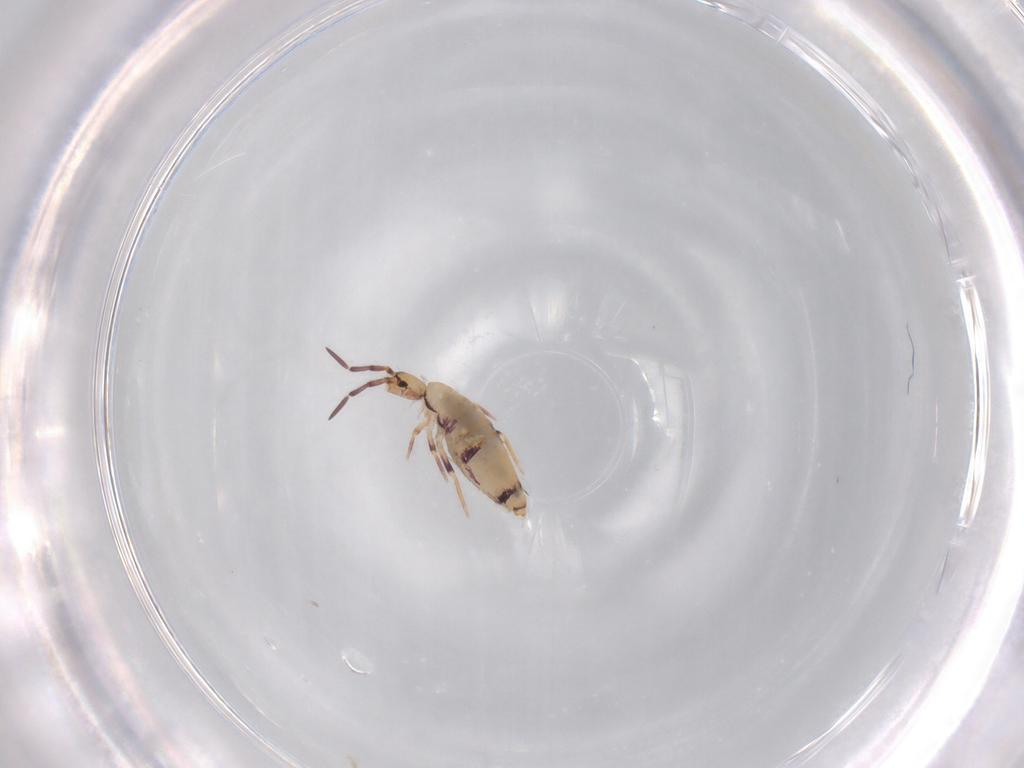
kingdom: Animalia
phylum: Arthropoda
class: Collembola
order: Entomobryomorpha
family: Entomobryidae
